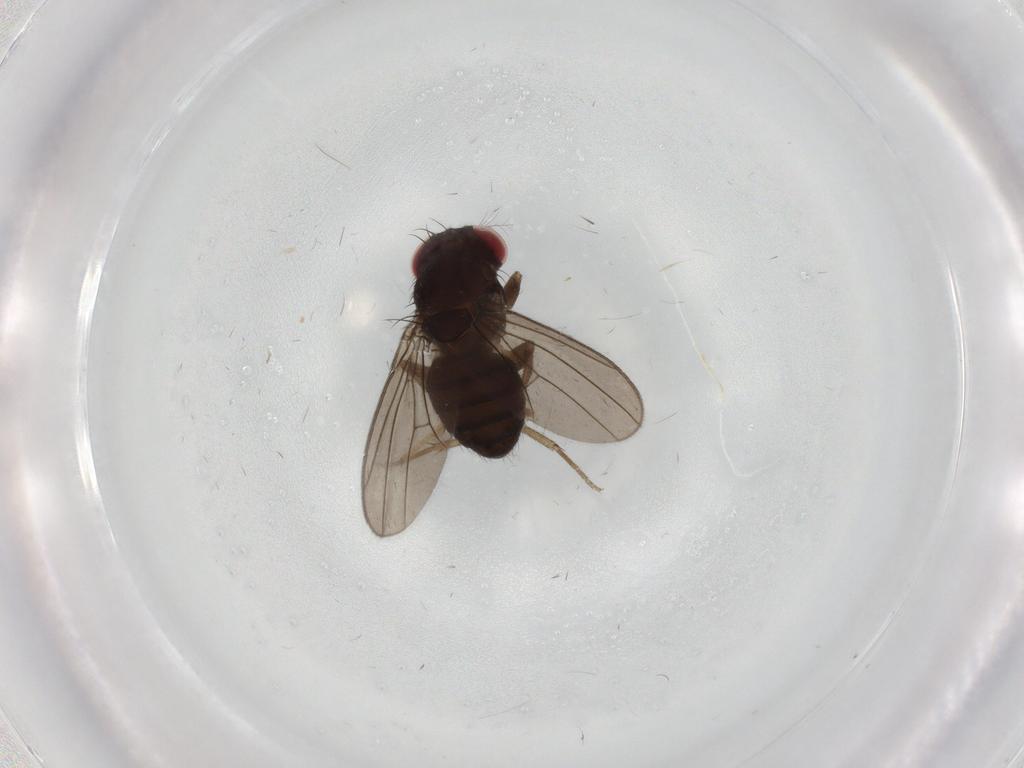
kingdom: Animalia
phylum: Arthropoda
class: Insecta
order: Diptera
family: Drosophilidae
